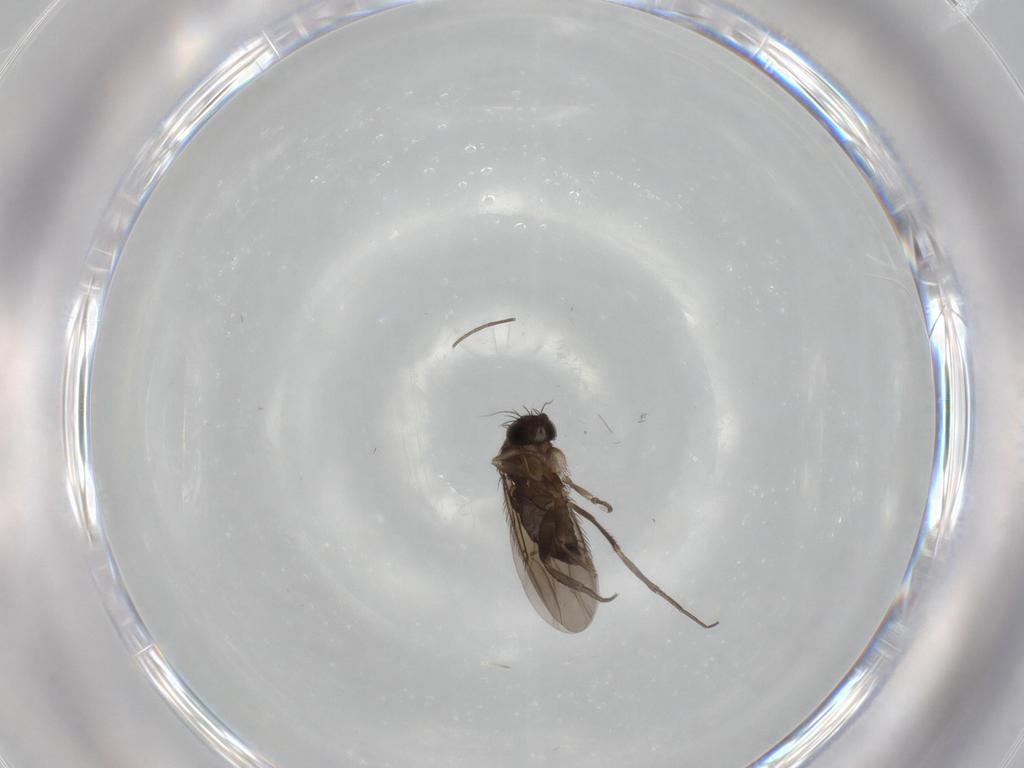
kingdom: Animalia
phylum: Arthropoda
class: Insecta
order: Diptera
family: Phoridae
